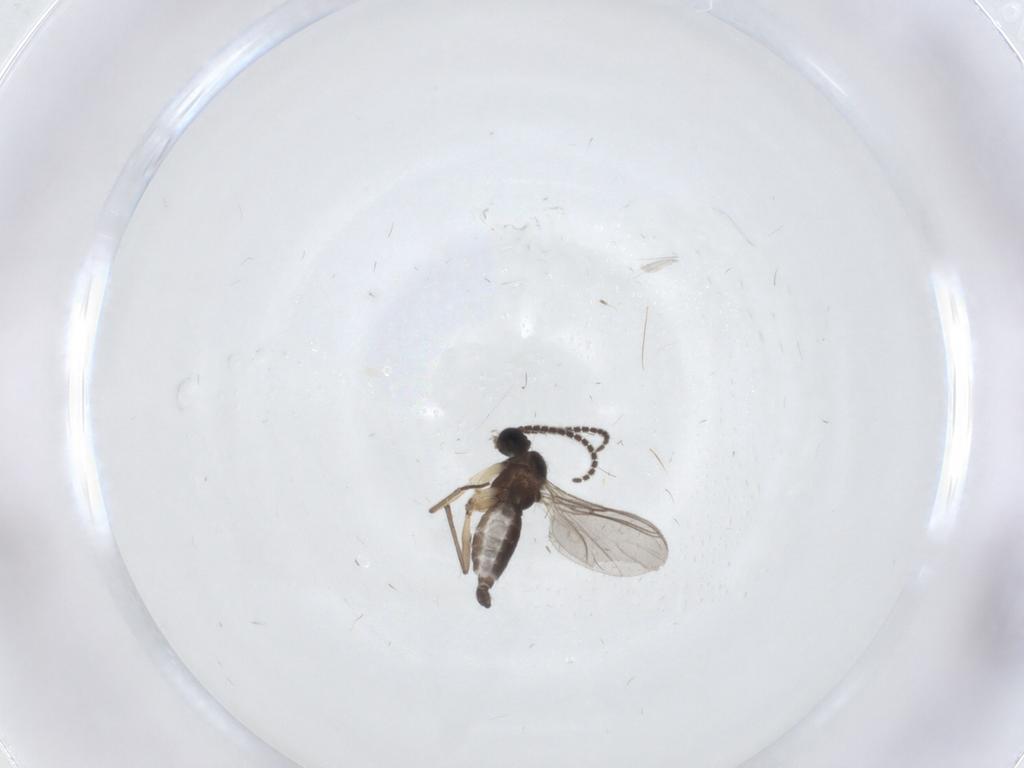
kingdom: Animalia
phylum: Arthropoda
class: Insecta
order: Diptera
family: Sciaridae
